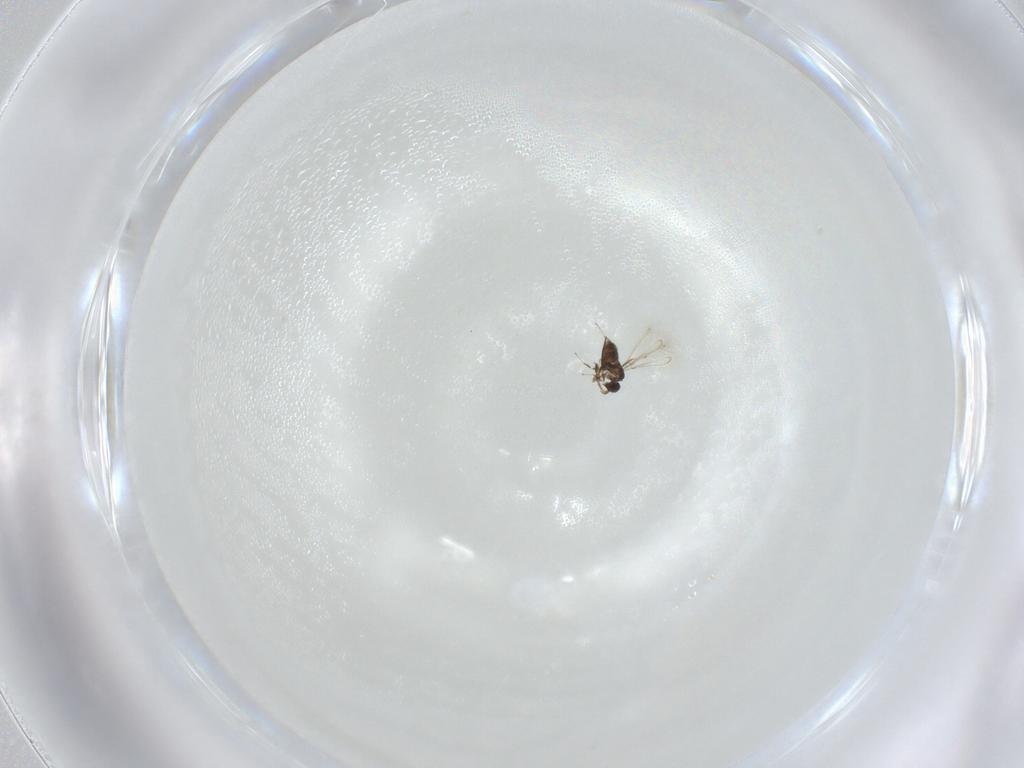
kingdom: Animalia
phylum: Arthropoda
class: Insecta
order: Hymenoptera
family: Mymaridae
